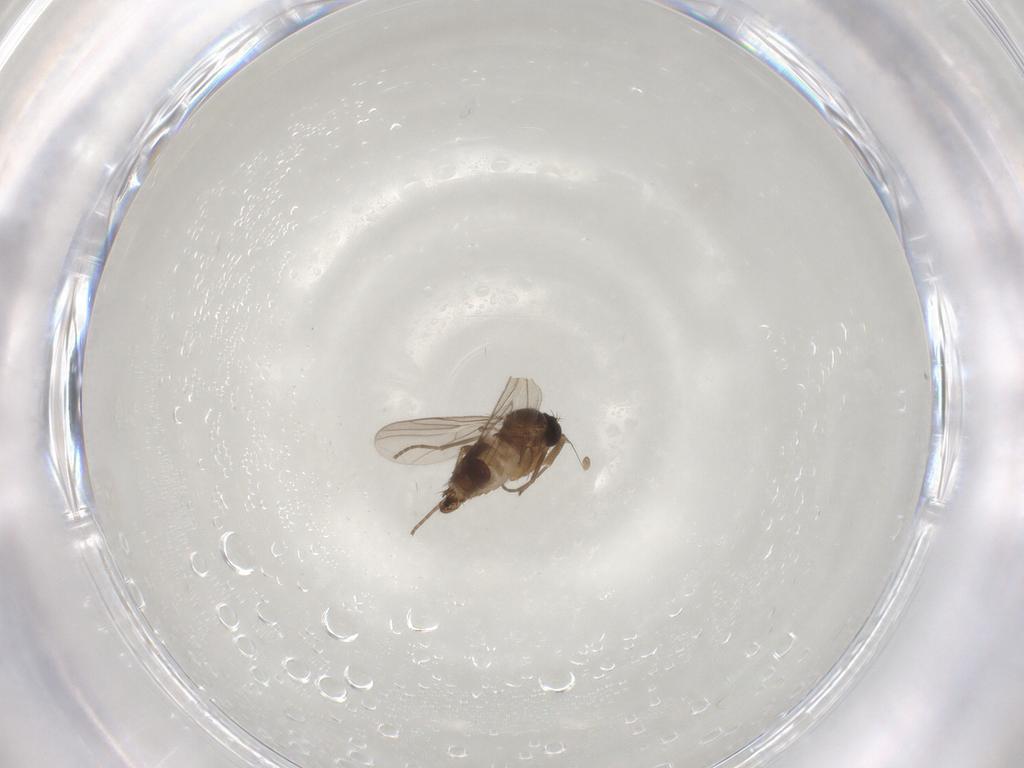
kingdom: Animalia
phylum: Arthropoda
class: Insecta
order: Diptera
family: Hybotidae
